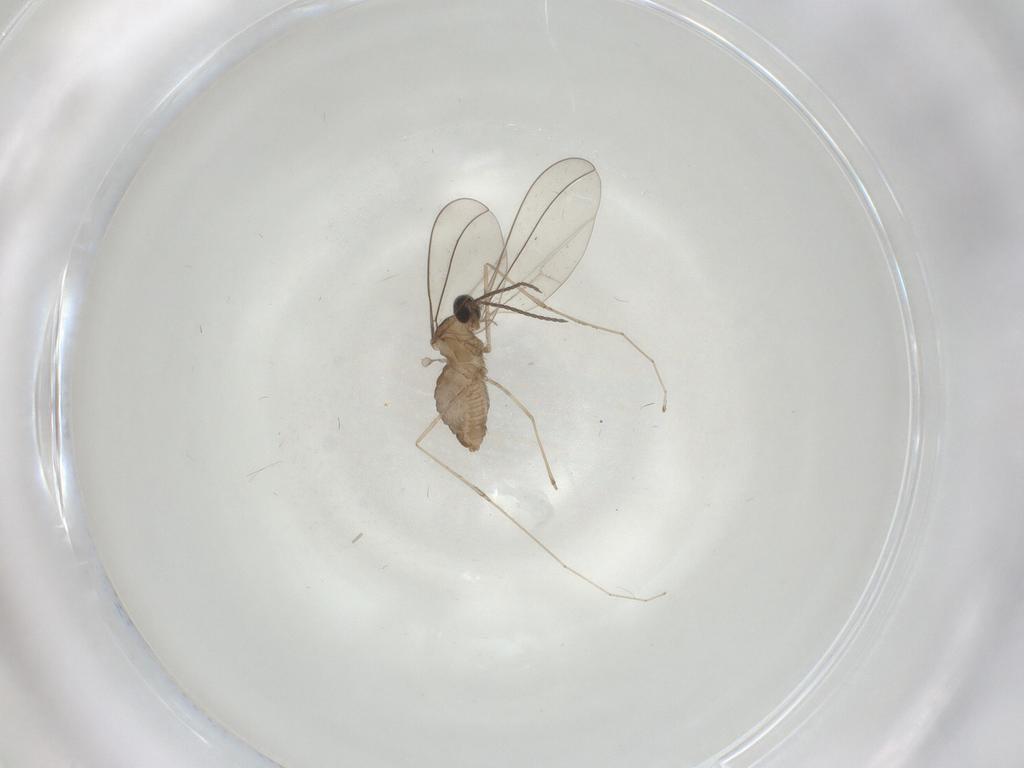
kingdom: Animalia
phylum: Arthropoda
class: Insecta
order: Diptera
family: Cecidomyiidae
